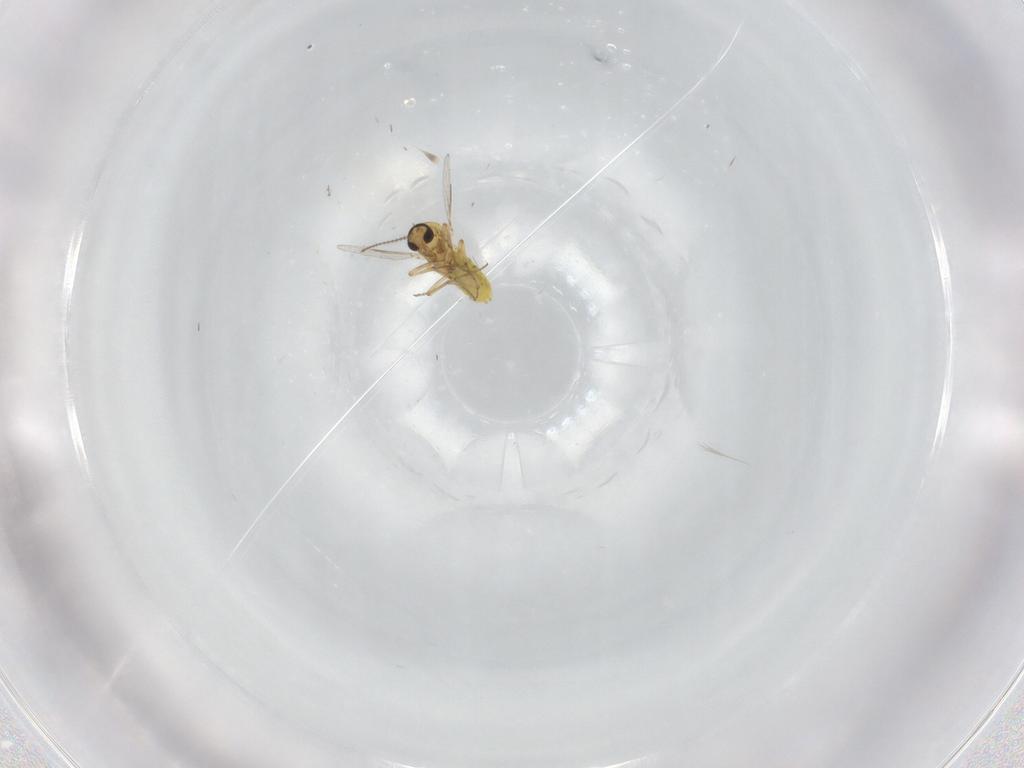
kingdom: Animalia
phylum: Arthropoda
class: Insecta
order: Diptera
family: Ceratopogonidae
